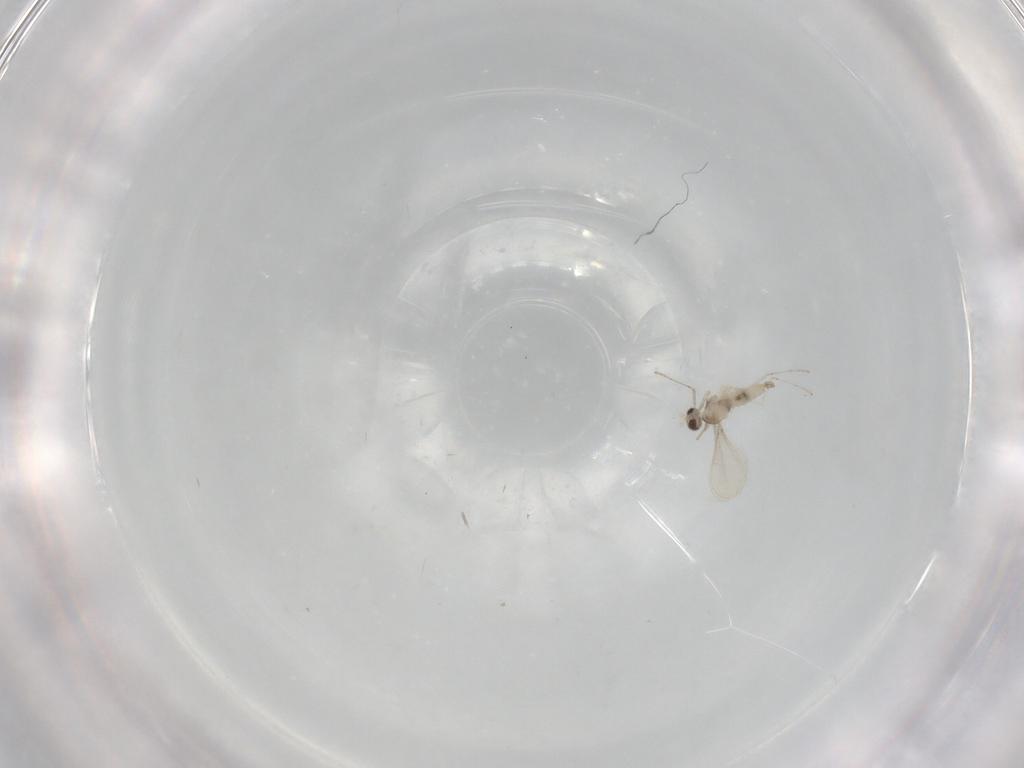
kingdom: Animalia
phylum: Arthropoda
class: Insecta
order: Diptera
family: Cecidomyiidae
